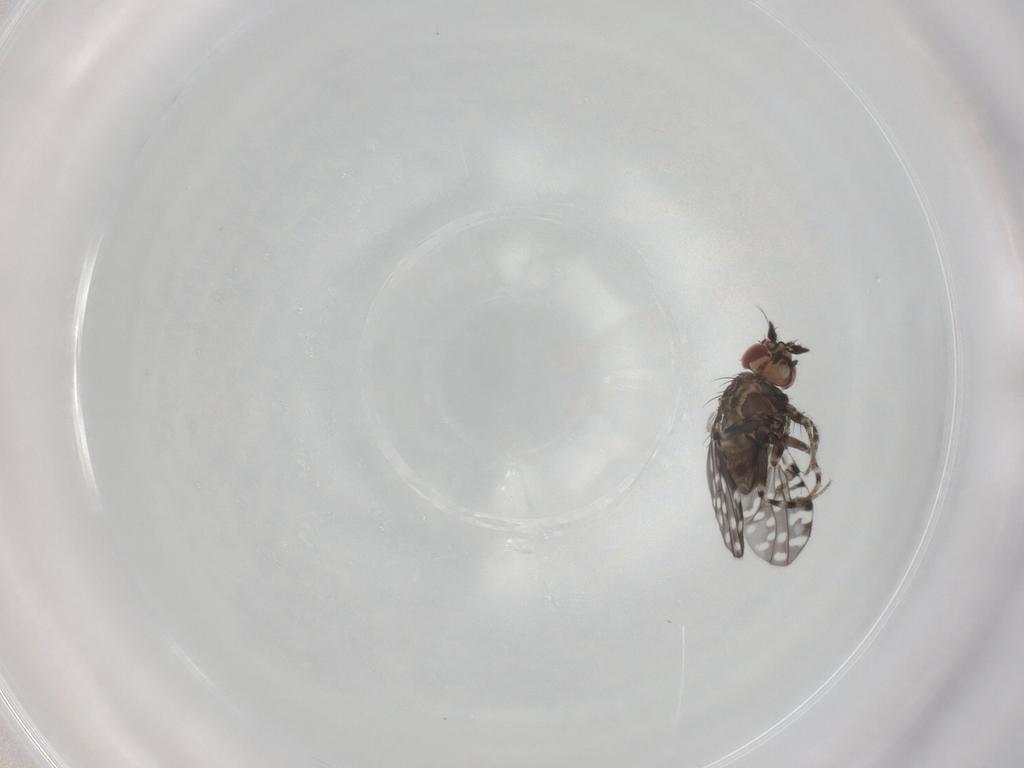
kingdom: Animalia
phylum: Arthropoda
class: Insecta
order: Diptera
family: Drosophilidae
